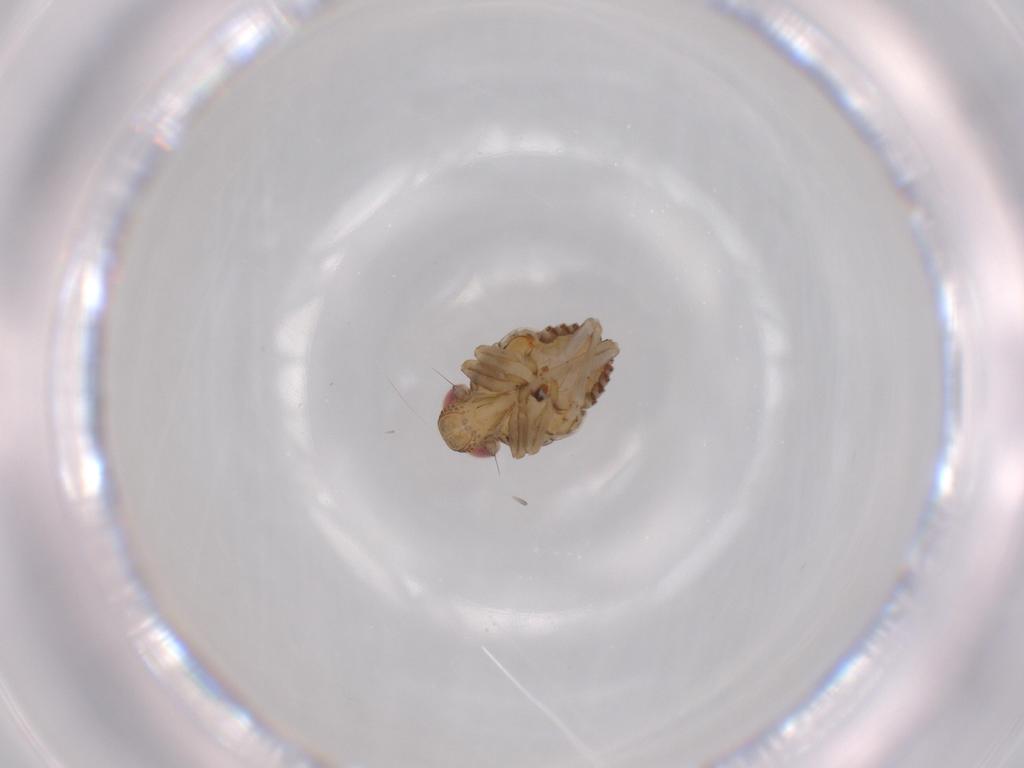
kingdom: Animalia
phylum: Arthropoda
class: Insecta
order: Hemiptera
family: Issidae
